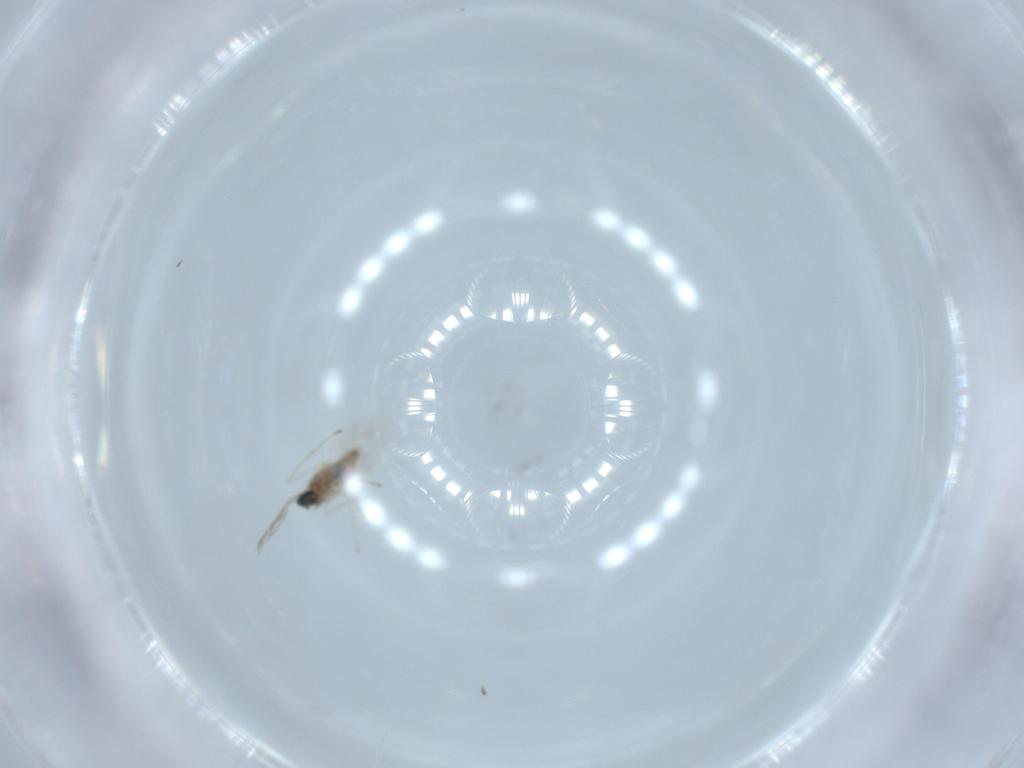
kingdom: Animalia
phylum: Arthropoda
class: Insecta
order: Diptera
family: Cecidomyiidae
